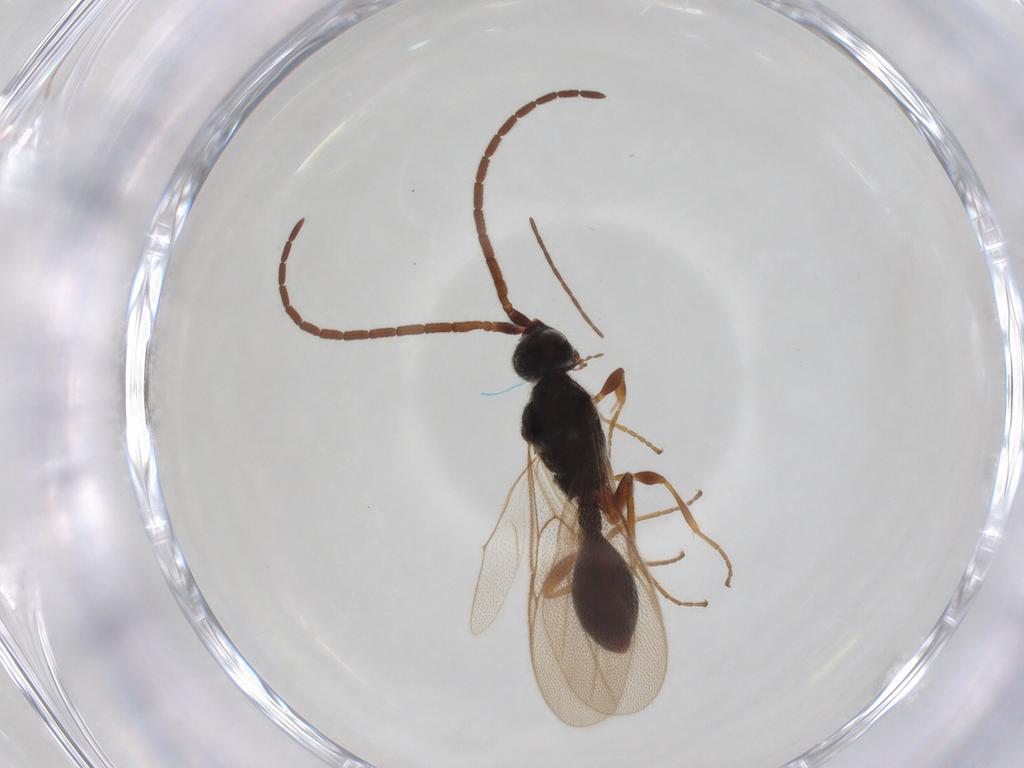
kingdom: Animalia
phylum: Arthropoda
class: Insecta
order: Hymenoptera
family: Diapriidae
